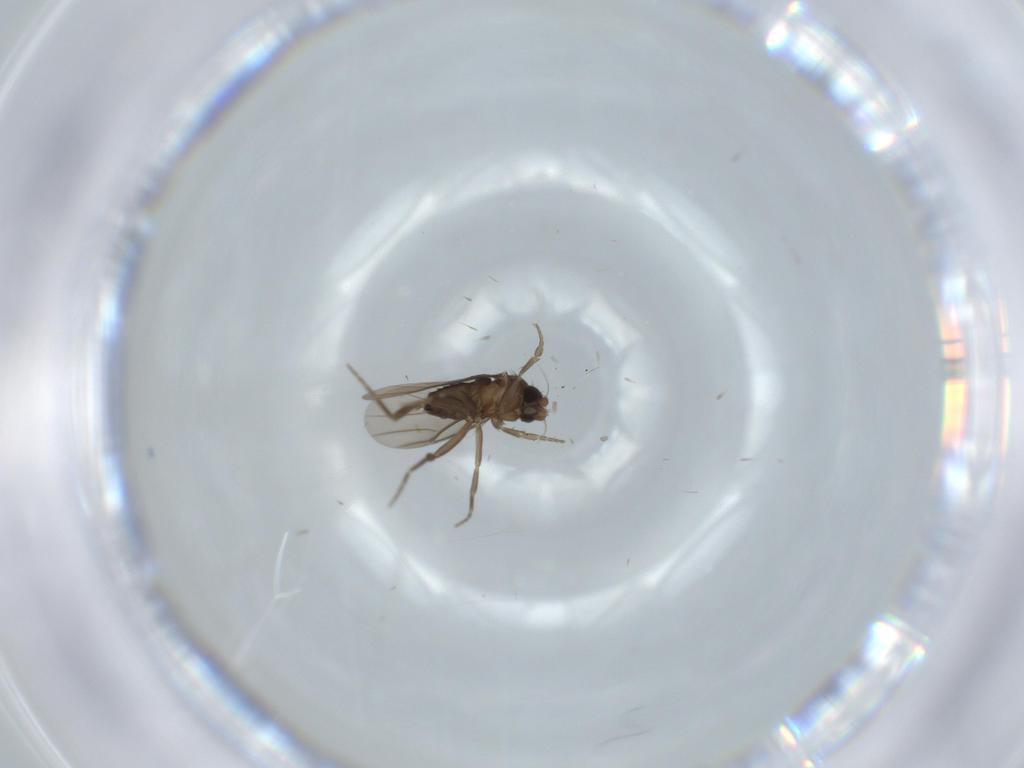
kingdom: Animalia
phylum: Arthropoda
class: Insecta
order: Diptera
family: Ceratopogonidae
